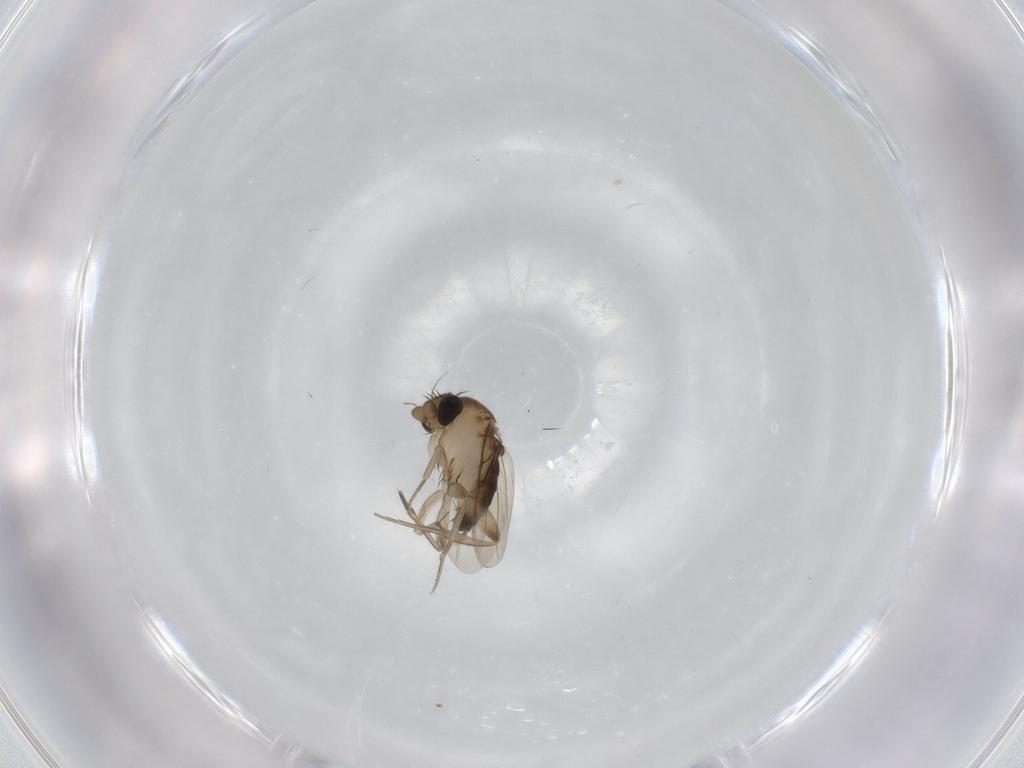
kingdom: Animalia
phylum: Arthropoda
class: Insecta
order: Diptera
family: Phoridae
